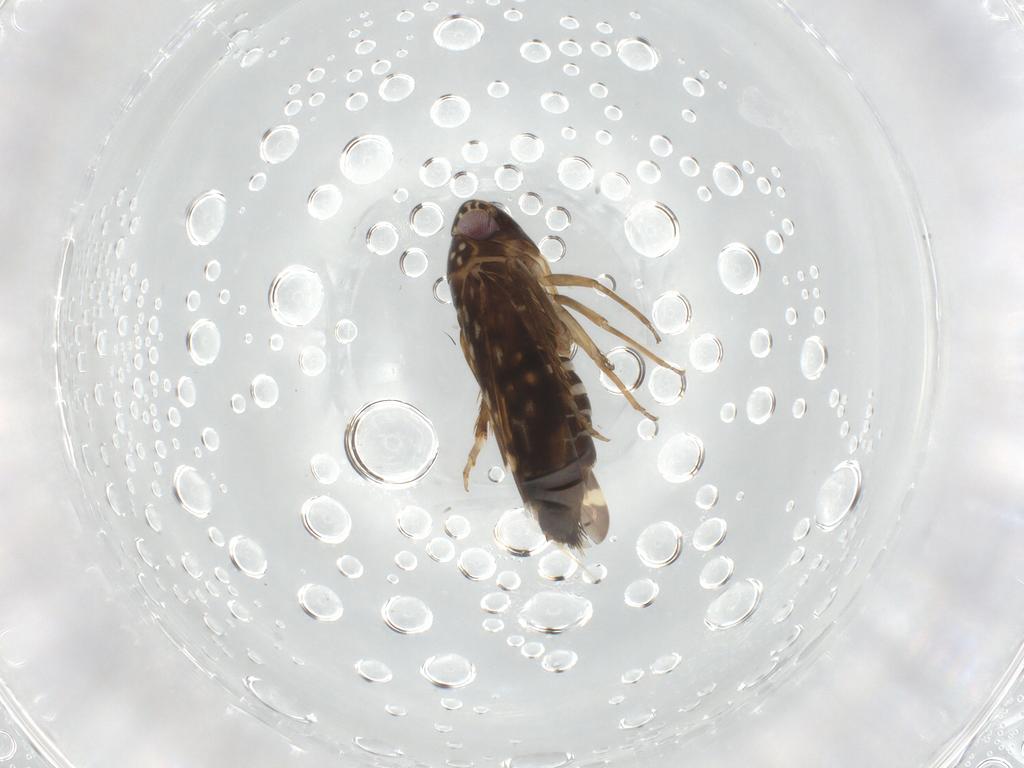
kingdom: Animalia
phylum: Arthropoda
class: Insecta
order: Hemiptera
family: Cicadellidae
